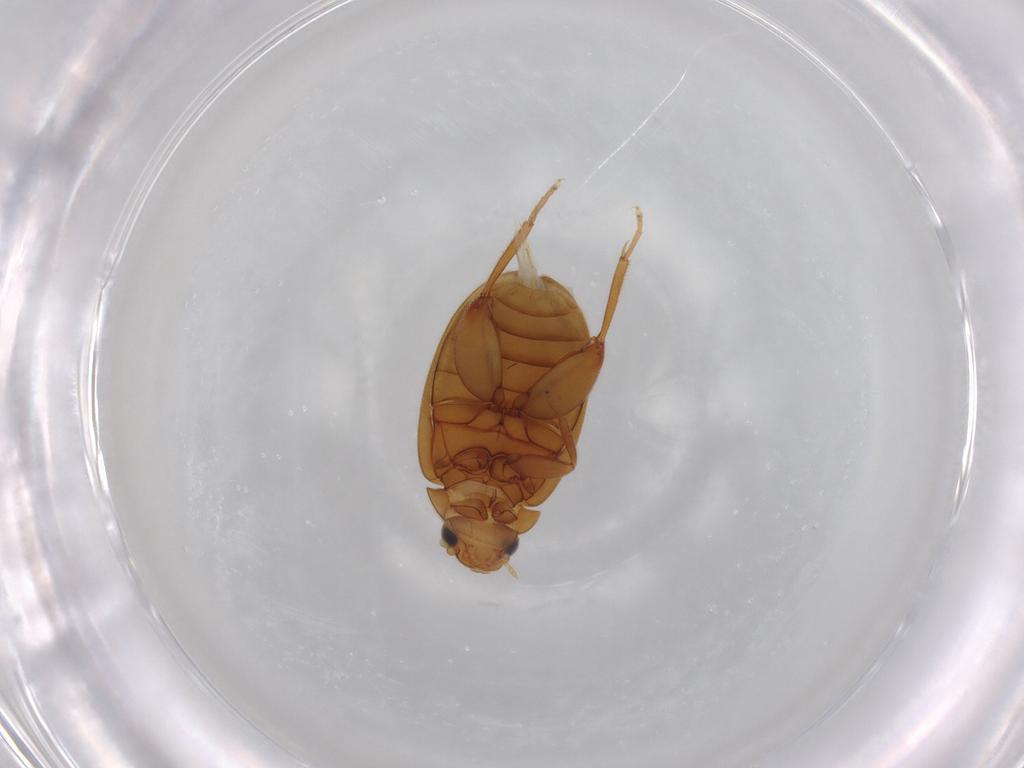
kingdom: Animalia
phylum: Arthropoda
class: Insecta
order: Coleoptera
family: Scirtidae
